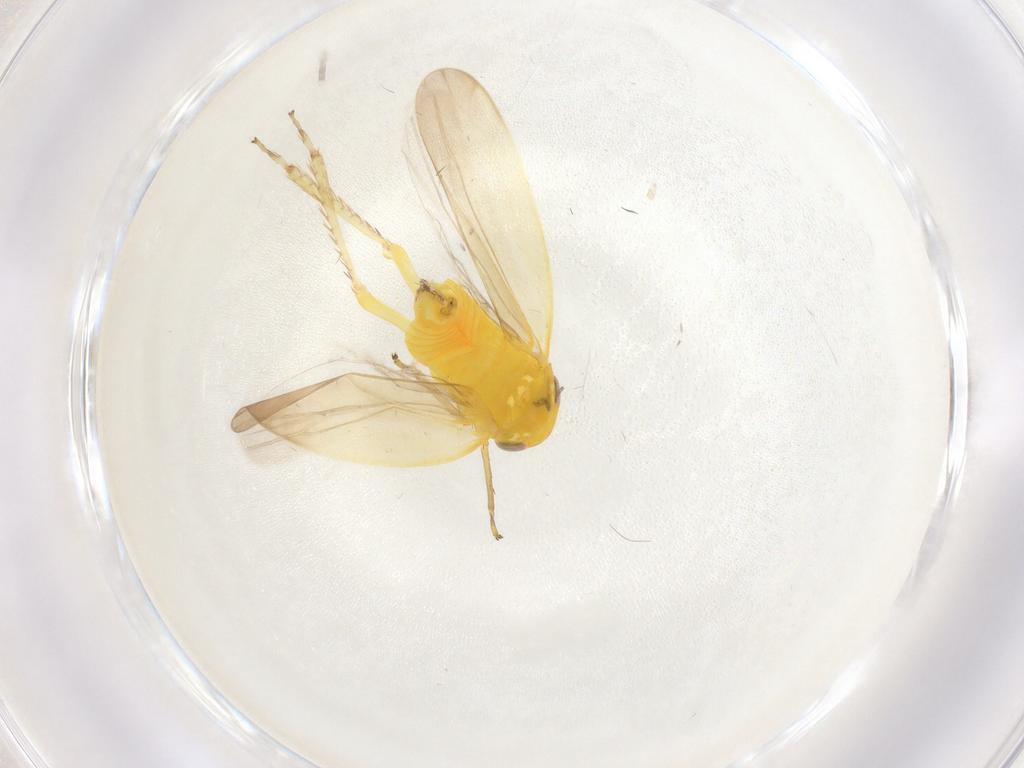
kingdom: Animalia
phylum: Arthropoda
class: Insecta
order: Hemiptera
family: Cicadellidae
